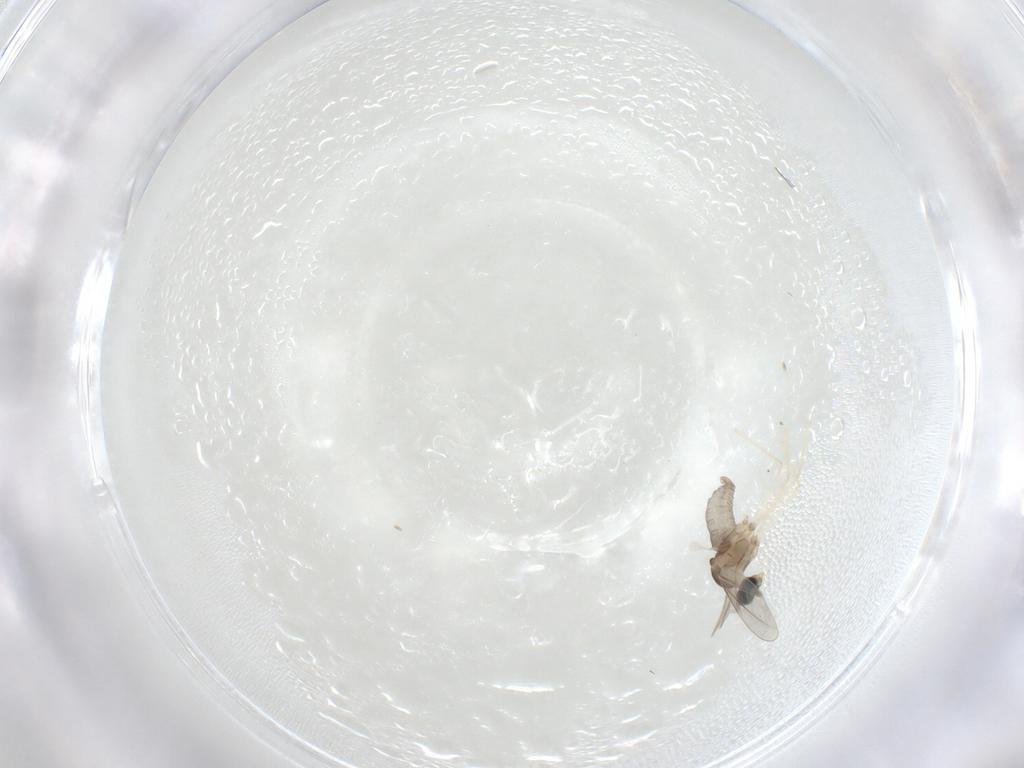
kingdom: Animalia
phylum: Arthropoda
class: Insecta
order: Diptera
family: Cecidomyiidae
